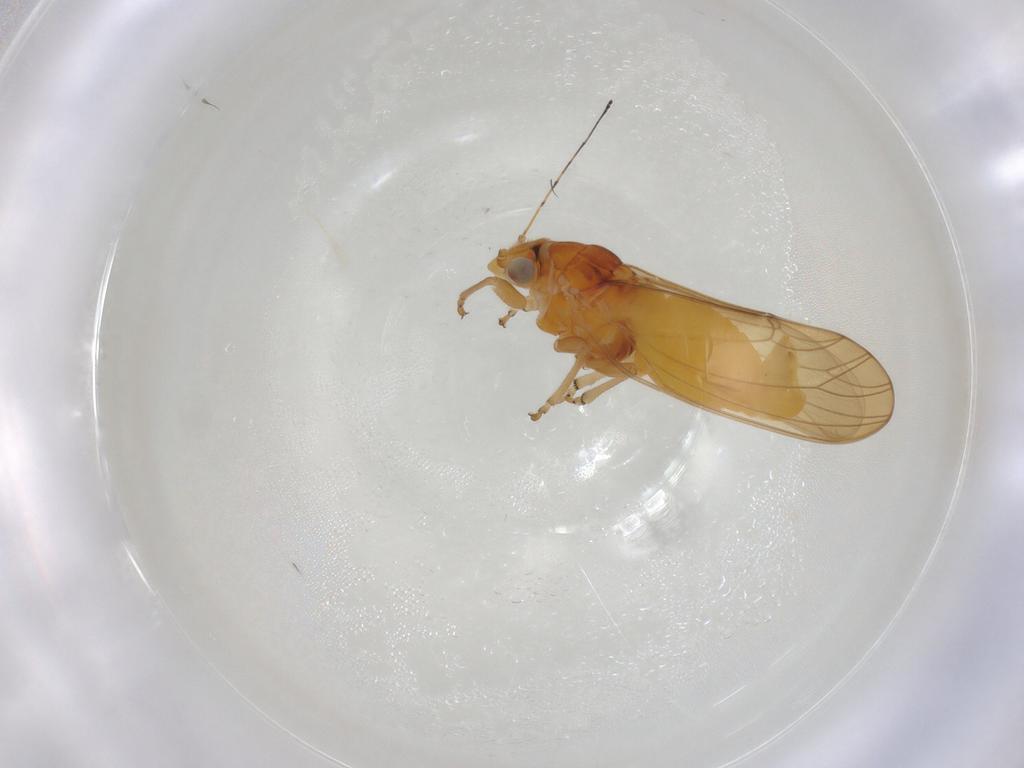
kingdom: Animalia
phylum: Arthropoda
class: Insecta
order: Hemiptera
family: Psylloidea_incertae_sedis
